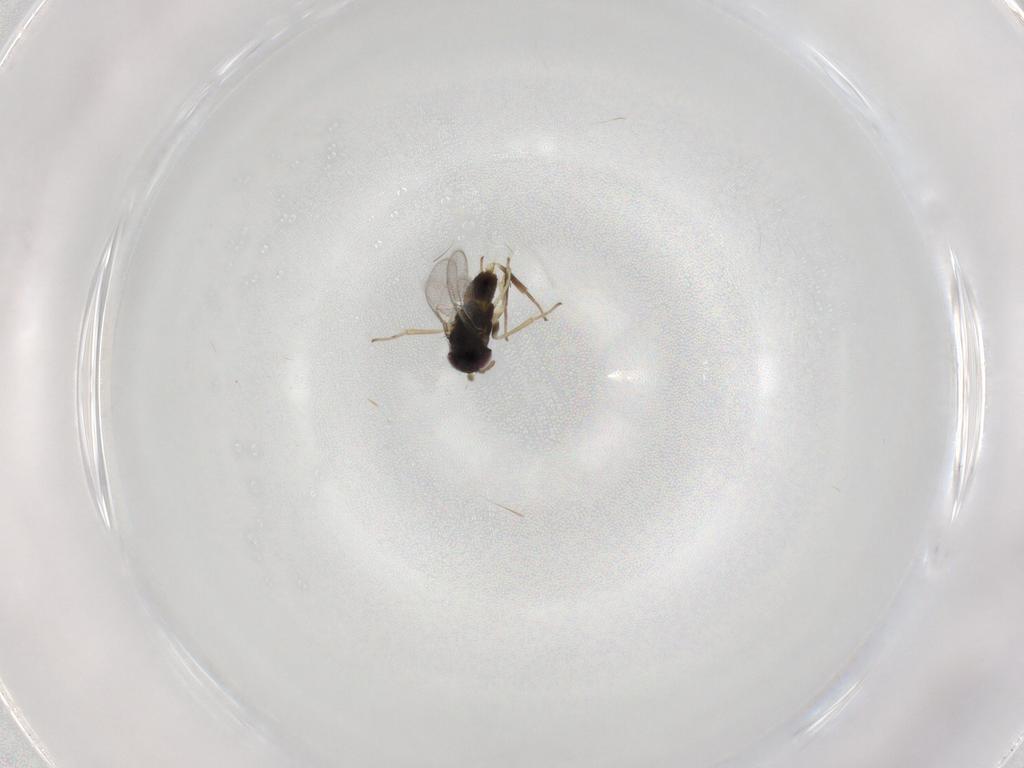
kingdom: Animalia
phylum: Arthropoda
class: Insecta
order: Hymenoptera
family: Aphelinidae
